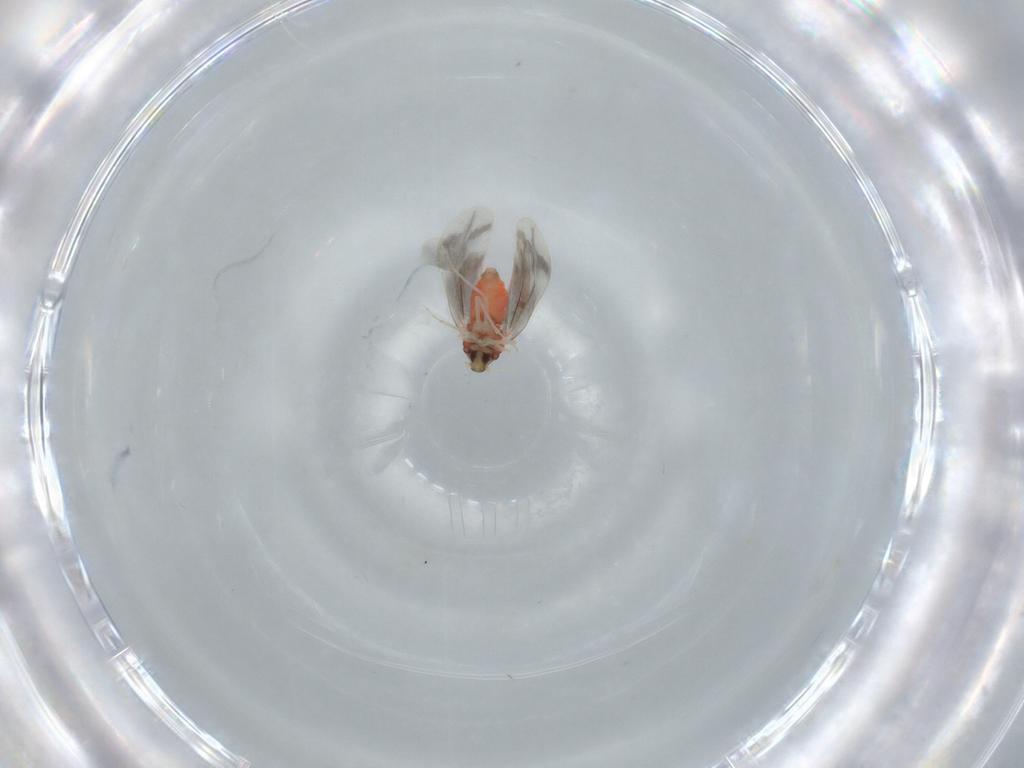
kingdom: Animalia
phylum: Arthropoda
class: Insecta
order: Hemiptera
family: Aleyrodidae
